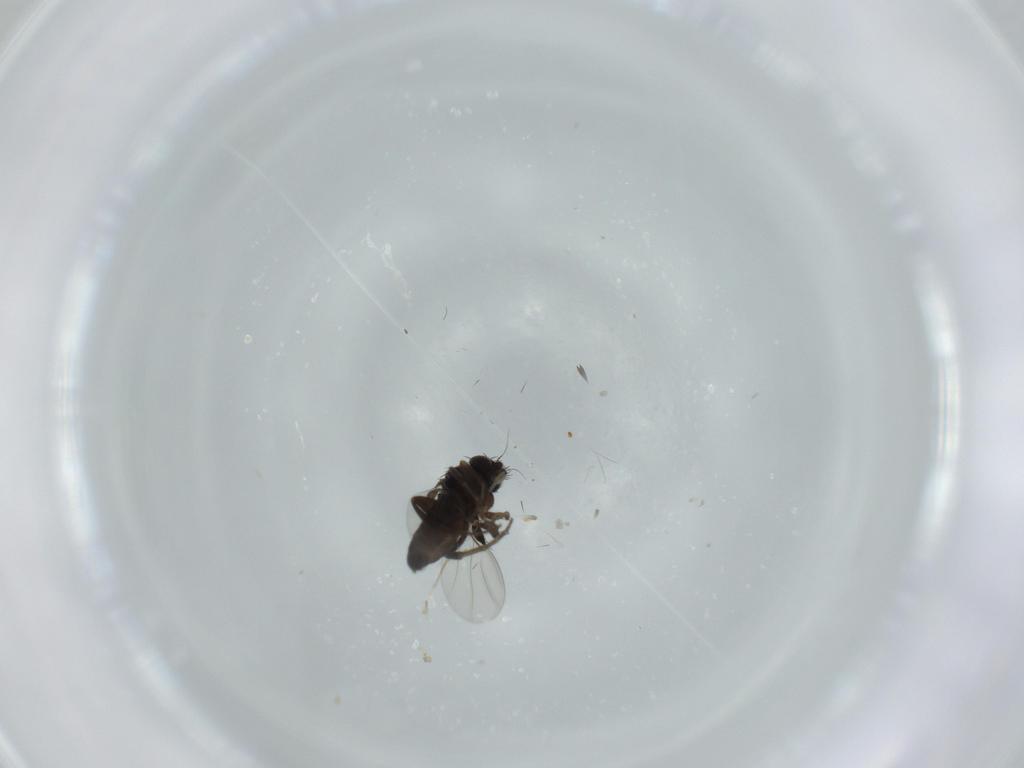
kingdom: Animalia
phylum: Arthropoda
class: Insecta
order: Diptera
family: Phoridae
